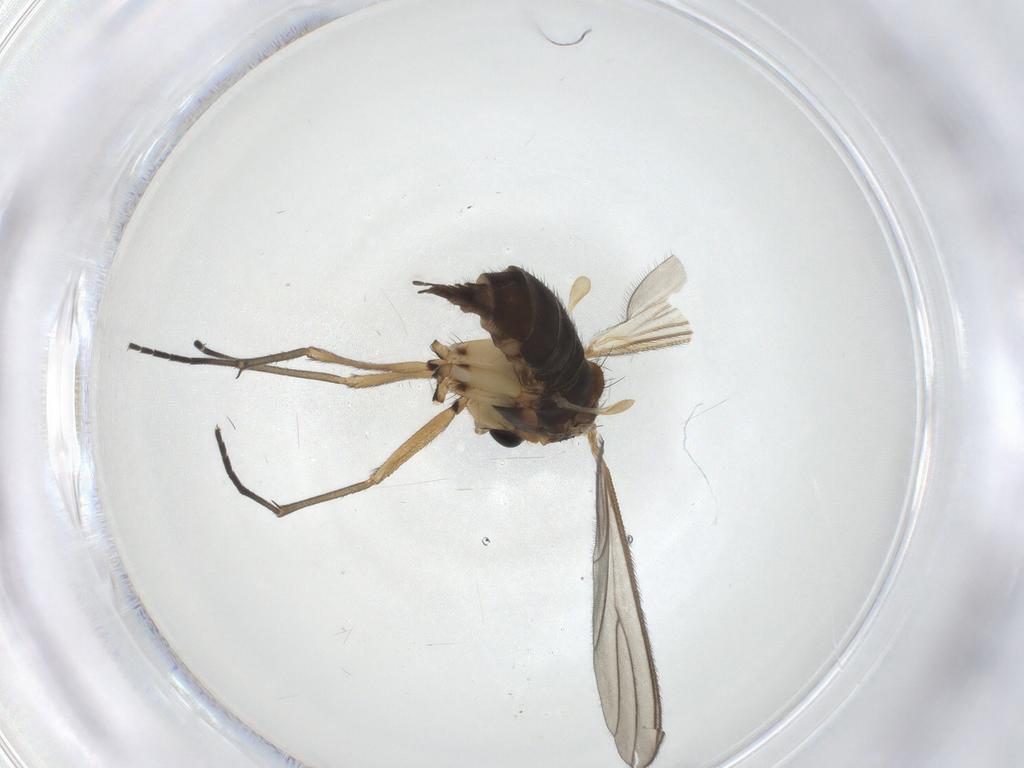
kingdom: Animalia
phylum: Arthropoda
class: Insecta
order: Diptera
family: Sciaridae
